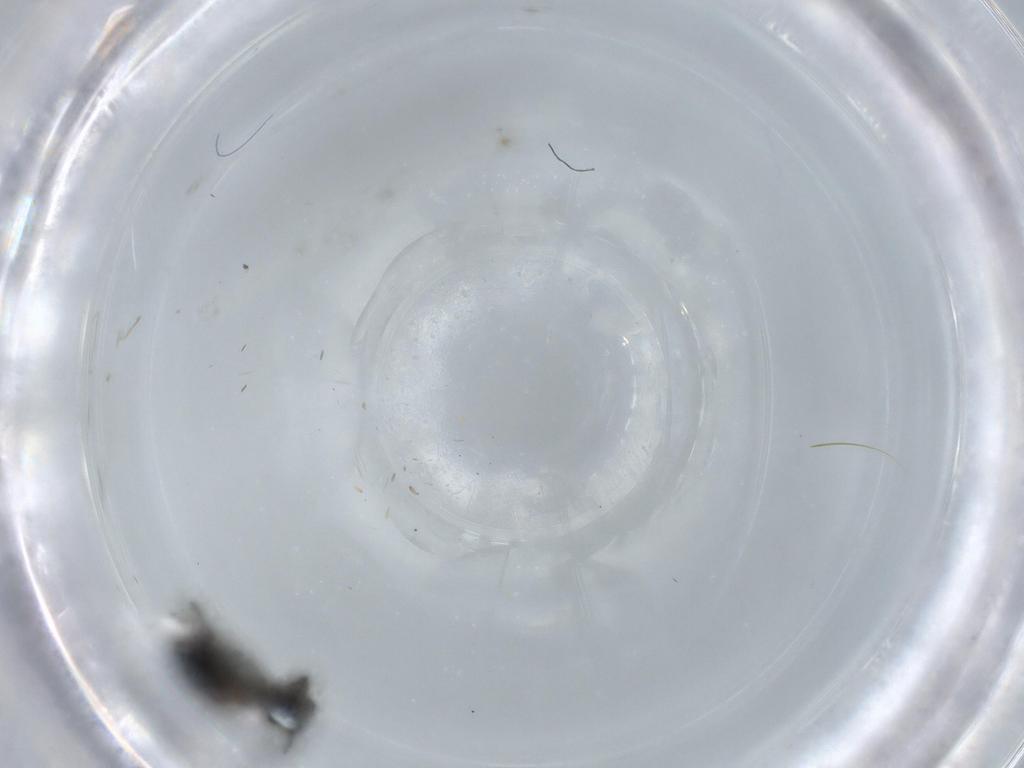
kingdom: Animalia
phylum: Arthropoda
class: Insecta
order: Diptera
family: Phoridae
